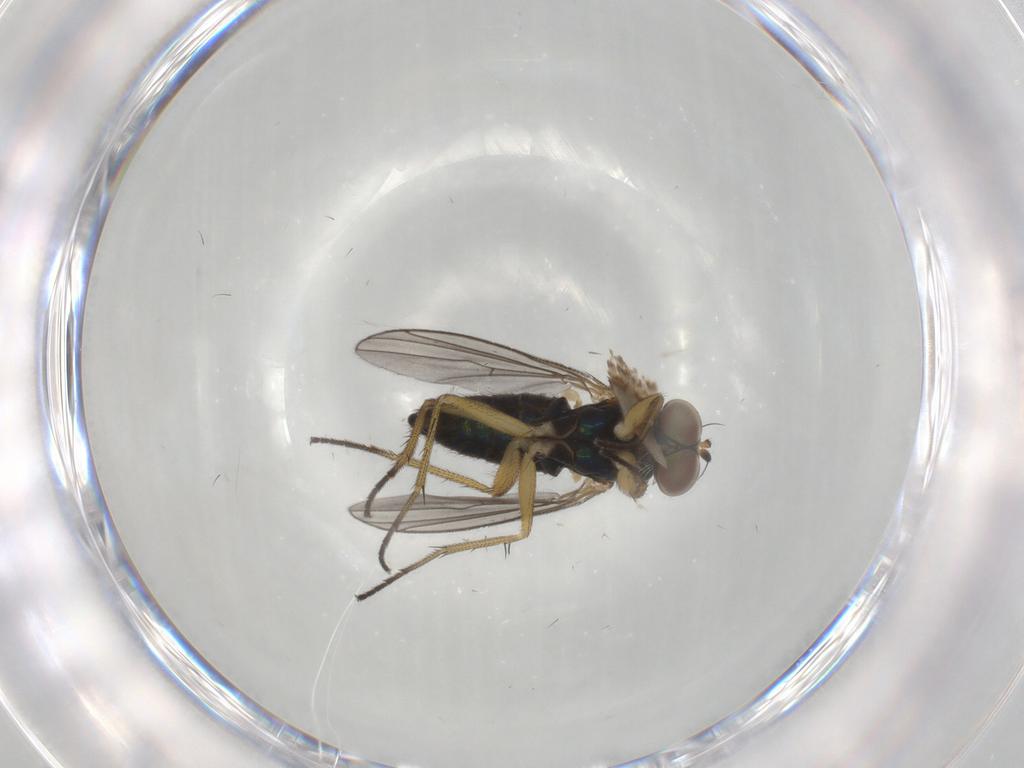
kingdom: Animalia
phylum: Arthropoda
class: Insecta
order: Diptera
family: Dolichopodidae
